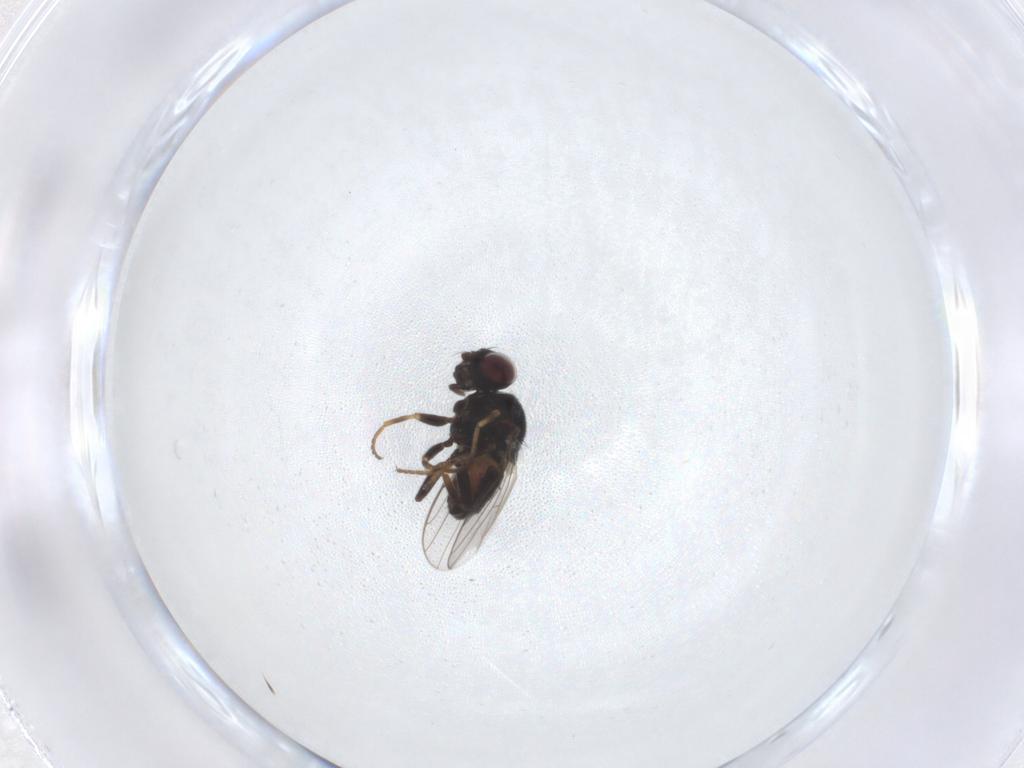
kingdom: Animalia
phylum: Arthropoda
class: Insecta
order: Diptera
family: Chloropidae
